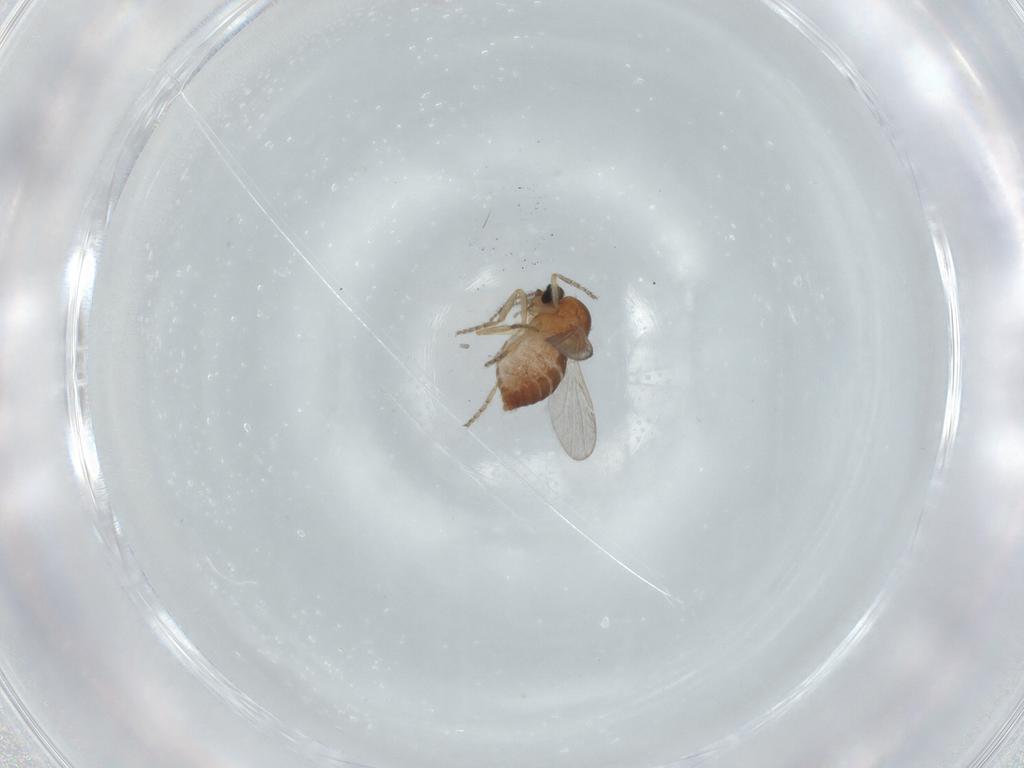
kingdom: Animalia
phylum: Arthropoda
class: Insecta
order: Diptera
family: Ceratopogonidae
